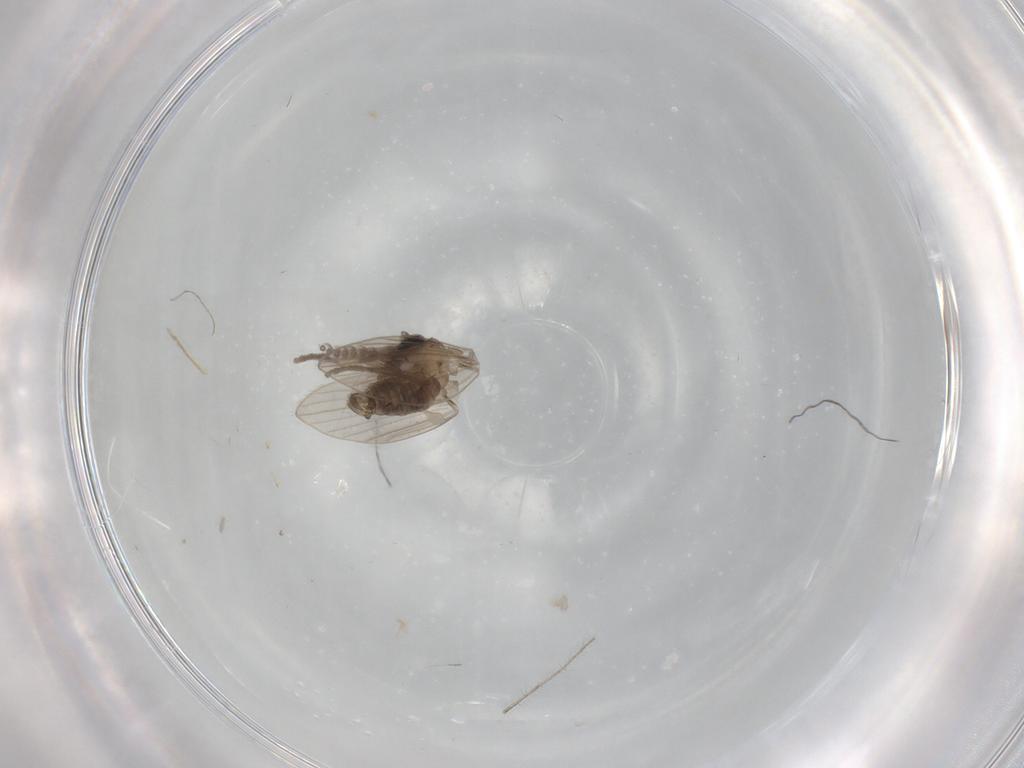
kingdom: Animalia
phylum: Arthropoda
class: Insecta
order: Diptera
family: Psychodidae
